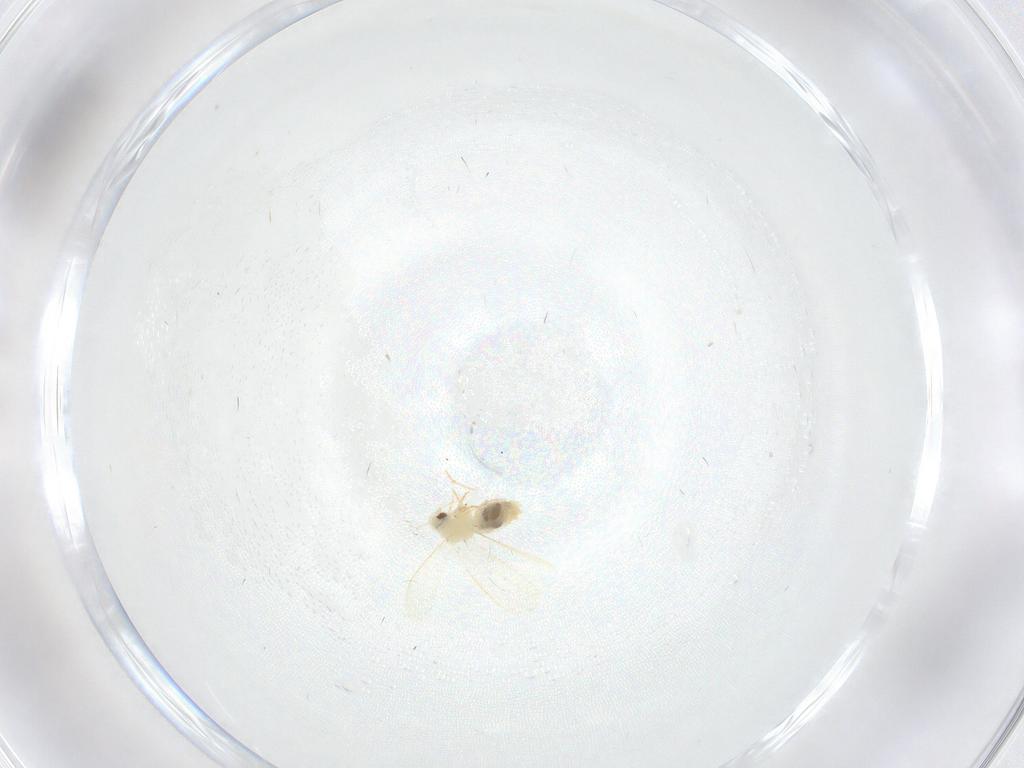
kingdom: Animalia
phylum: Arthropoda
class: Insecta
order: Hemiptera
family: Aleyrodidae
